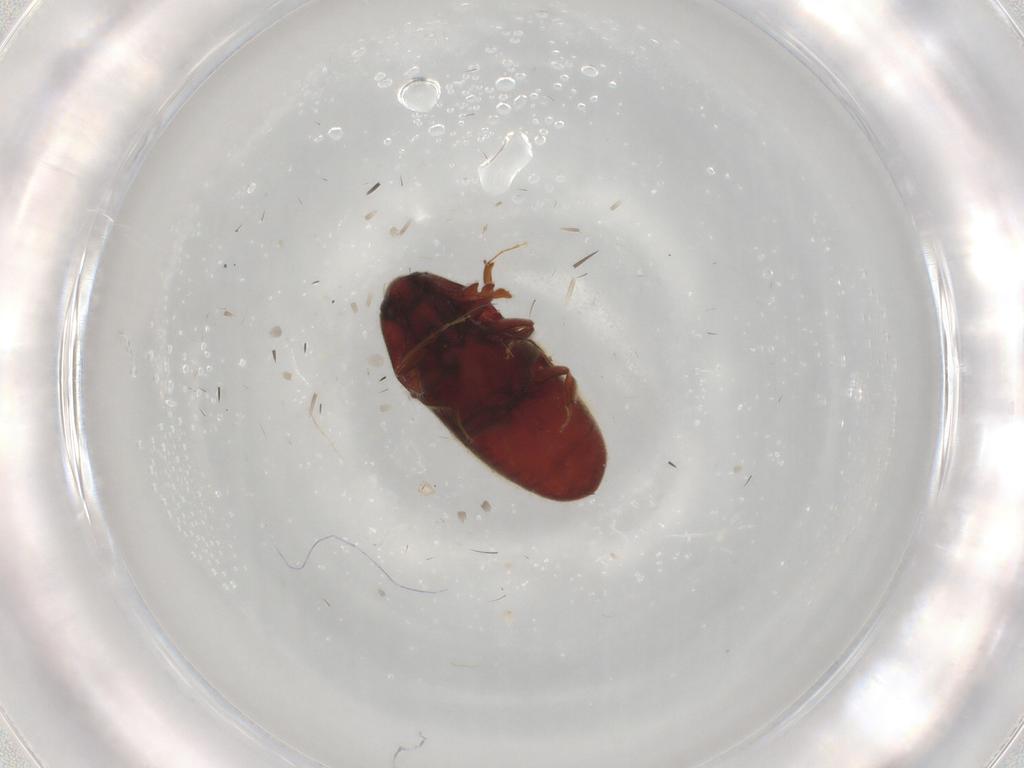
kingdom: Animalia
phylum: Arthropoda
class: Insecta
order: Coleoptera
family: Throscidae
